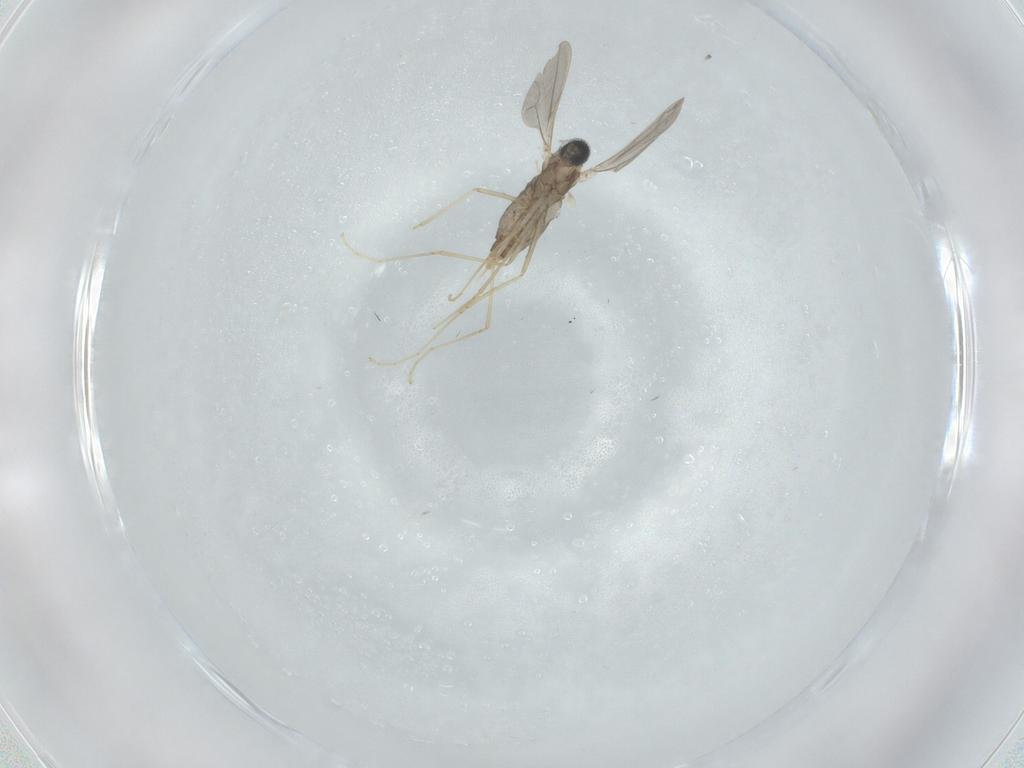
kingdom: Animalia
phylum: Arthropoda
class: Insecta
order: Diptera
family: Cecidomyiidae
